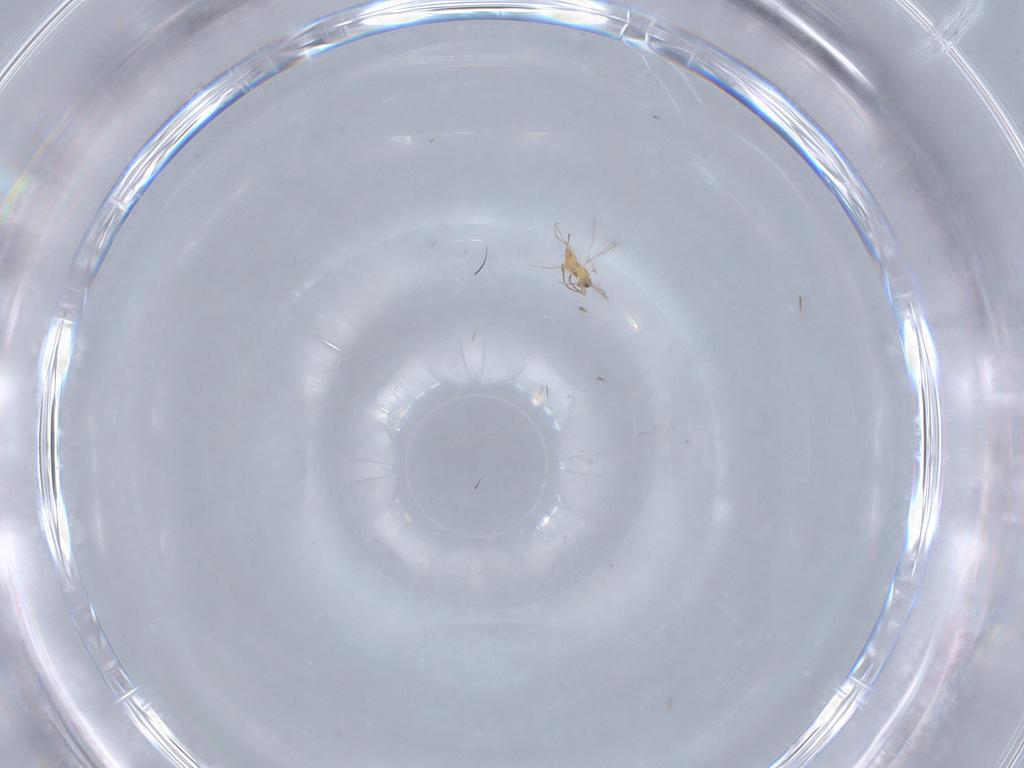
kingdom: Animalia
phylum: Arthropoda
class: Insecta
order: Hymenoptera
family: Mymaridae
